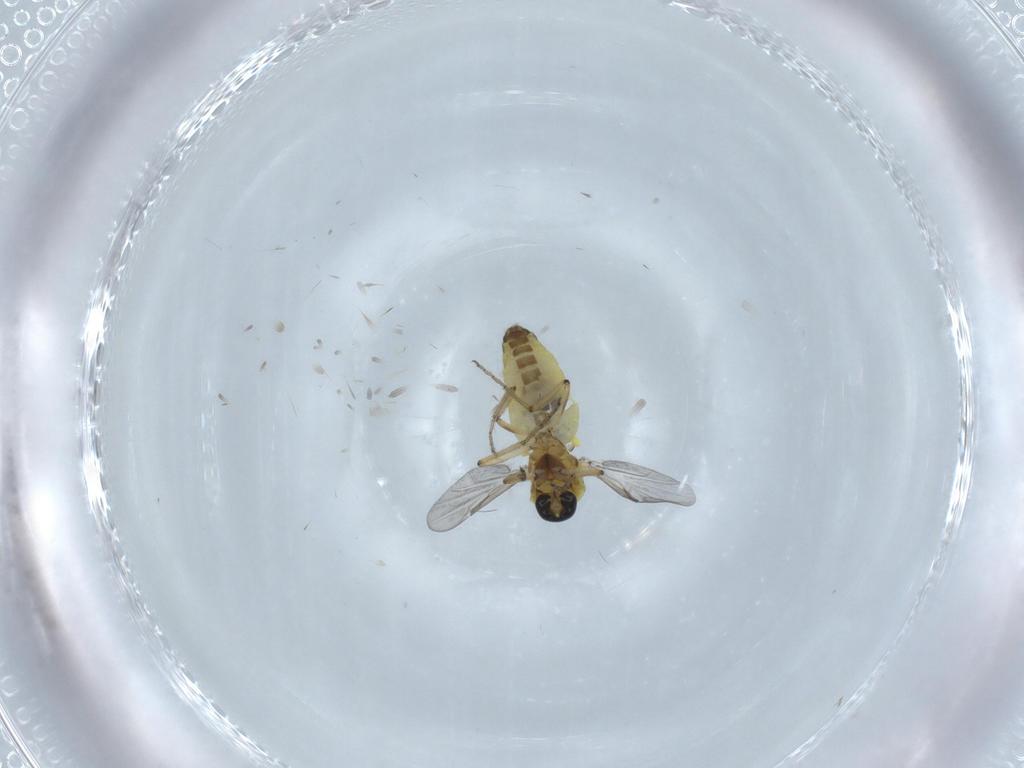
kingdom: Animalia
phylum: Arthropoda
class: Insecta
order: Diptera
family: Ceratopogonidae
